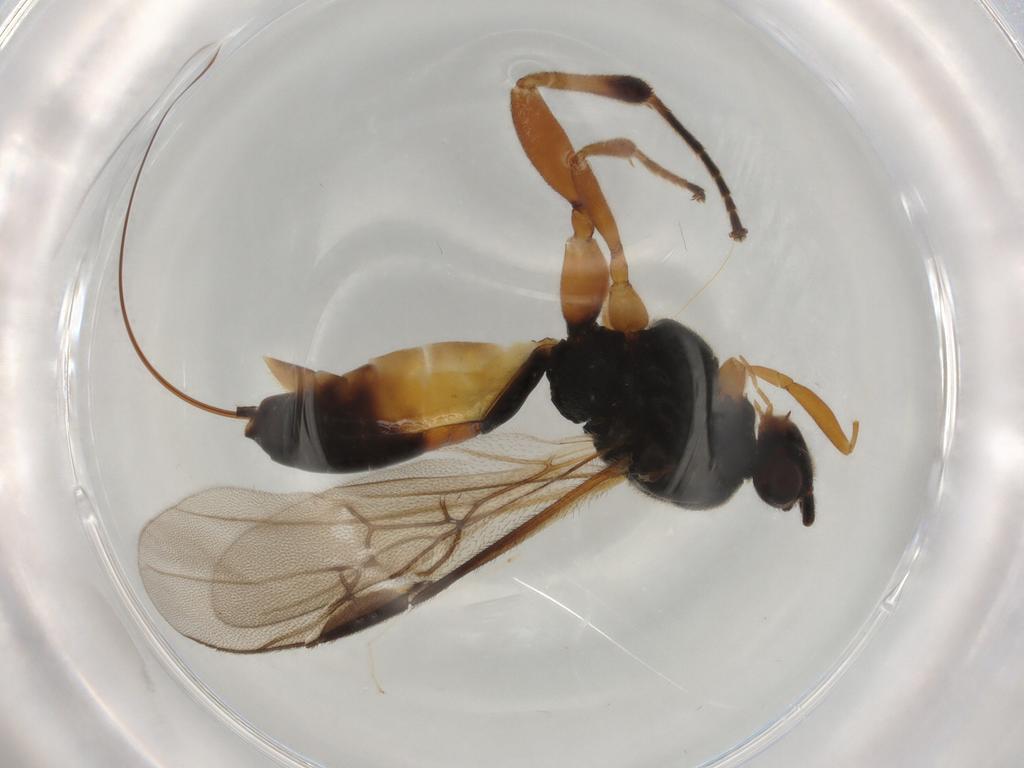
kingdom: Animalia
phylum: Arthropoda
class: Insecta
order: Hymenoptera
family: Braconidae
